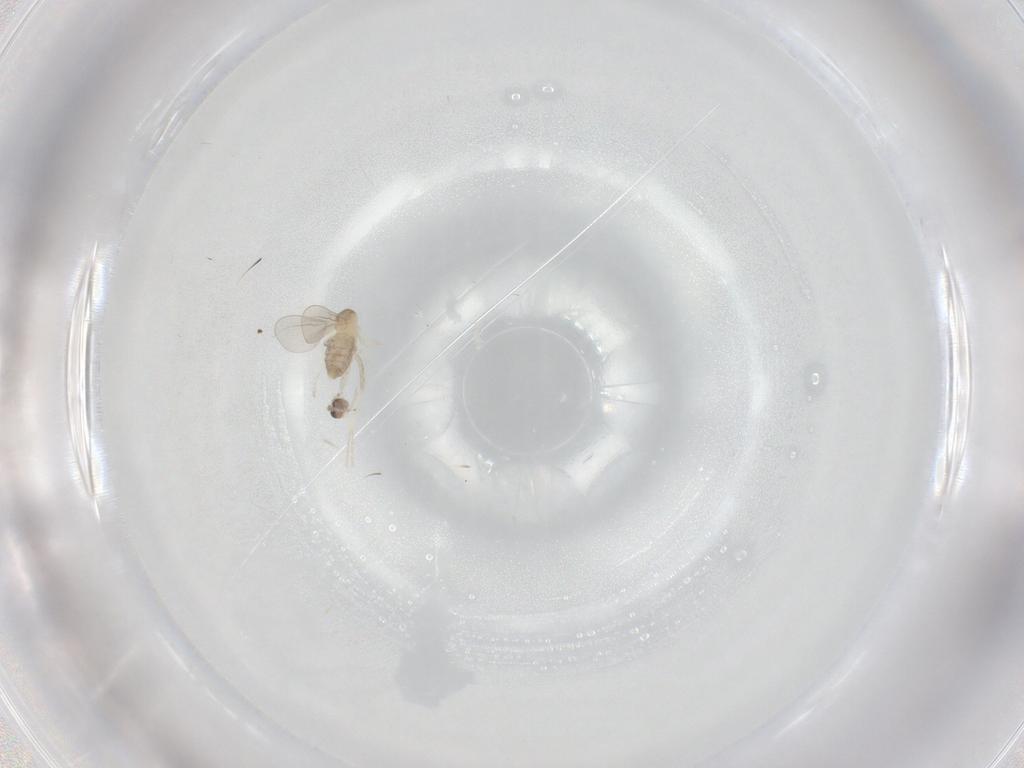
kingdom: Animalia
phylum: Arthropoda
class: Insecta
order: Diptera
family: Cecidomyiidae
